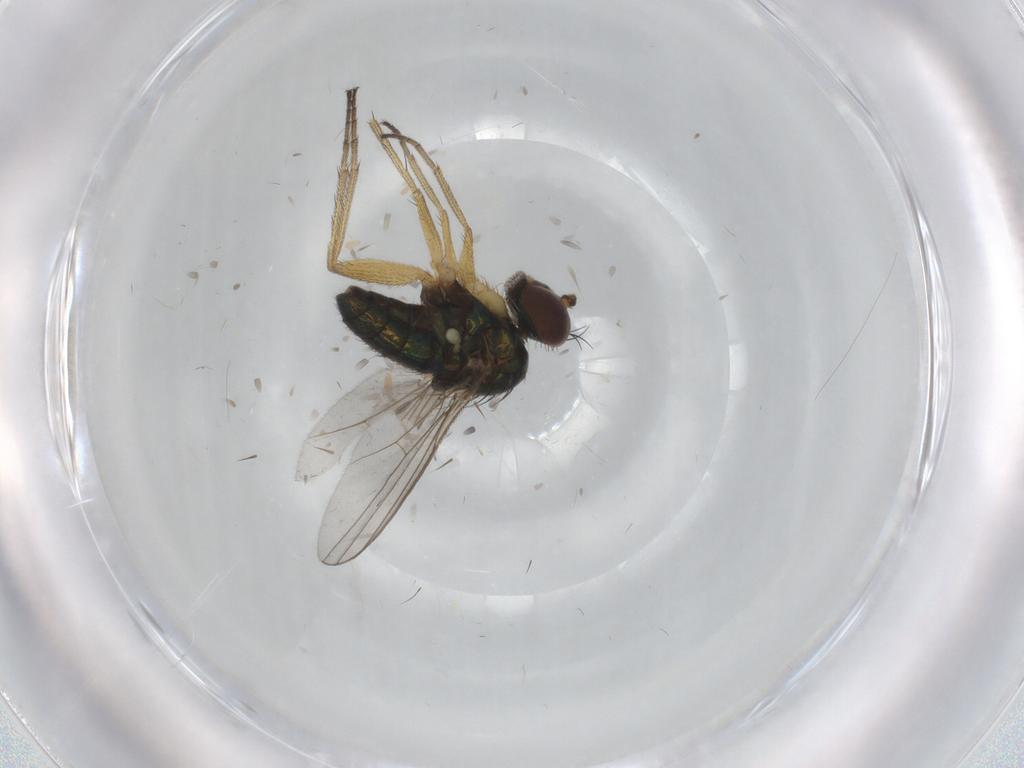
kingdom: Animalia
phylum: Arthropoda
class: Insecta
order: Diptera
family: Dolichopodidae
